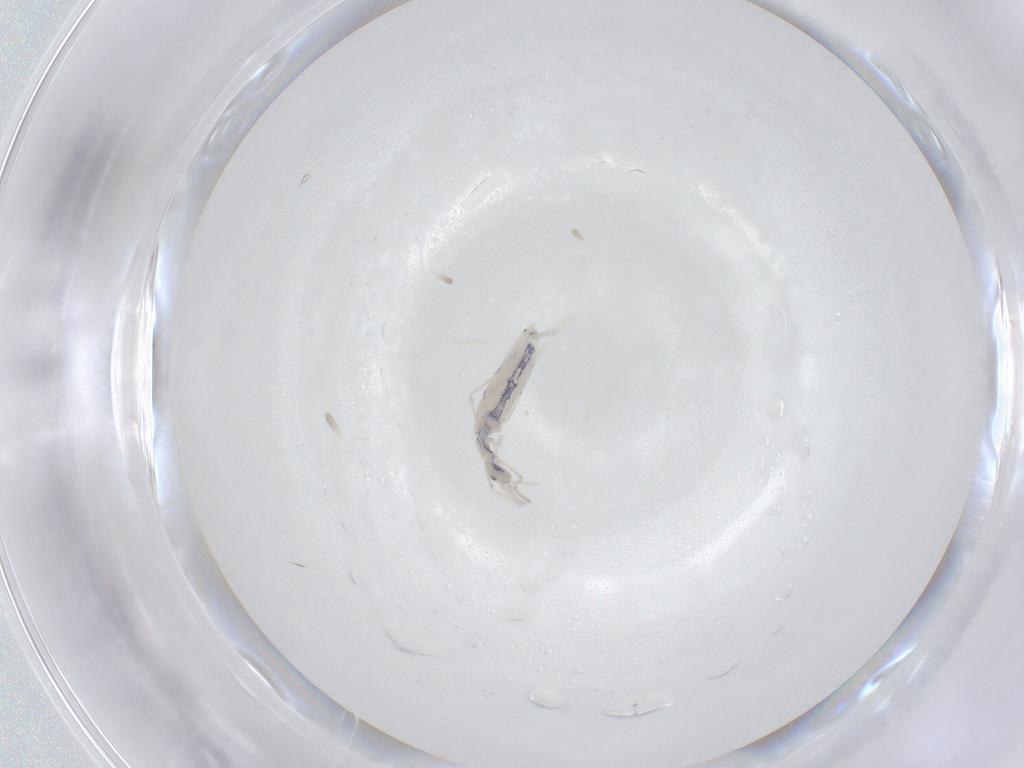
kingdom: Animalia
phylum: Arthropoda
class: Collembola
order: Entomobryomorpha
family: Entomobryidae
